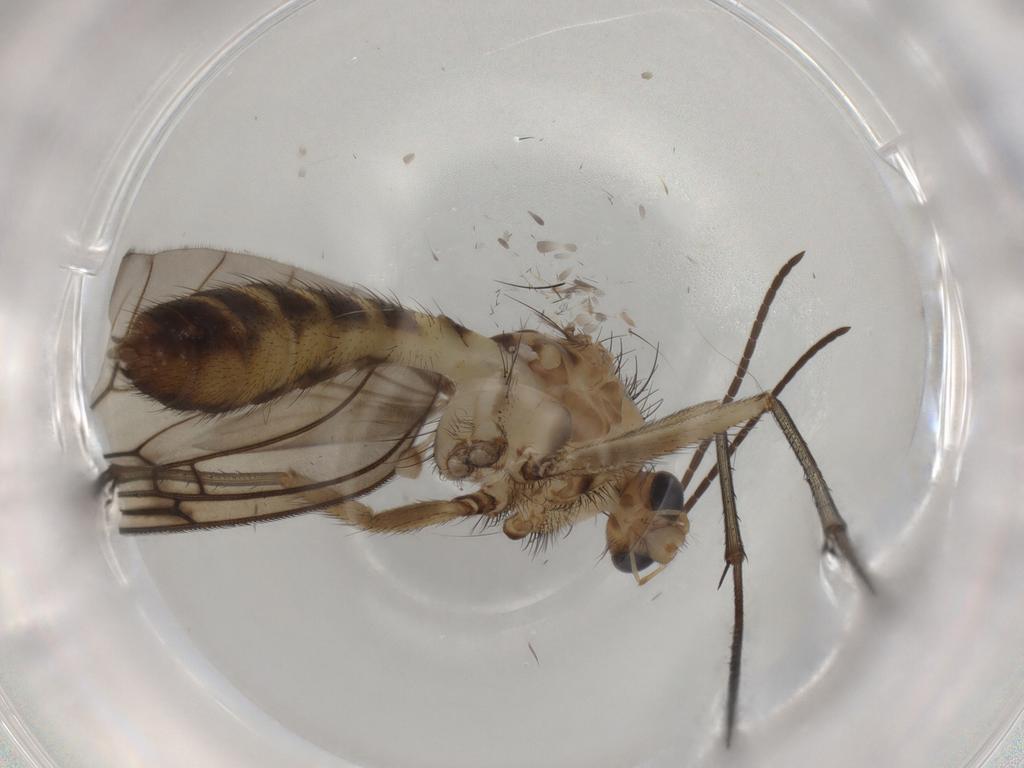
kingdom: Animalia
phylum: Arthropoda
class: Insecta
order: Diptera
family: Mycetophilidae
